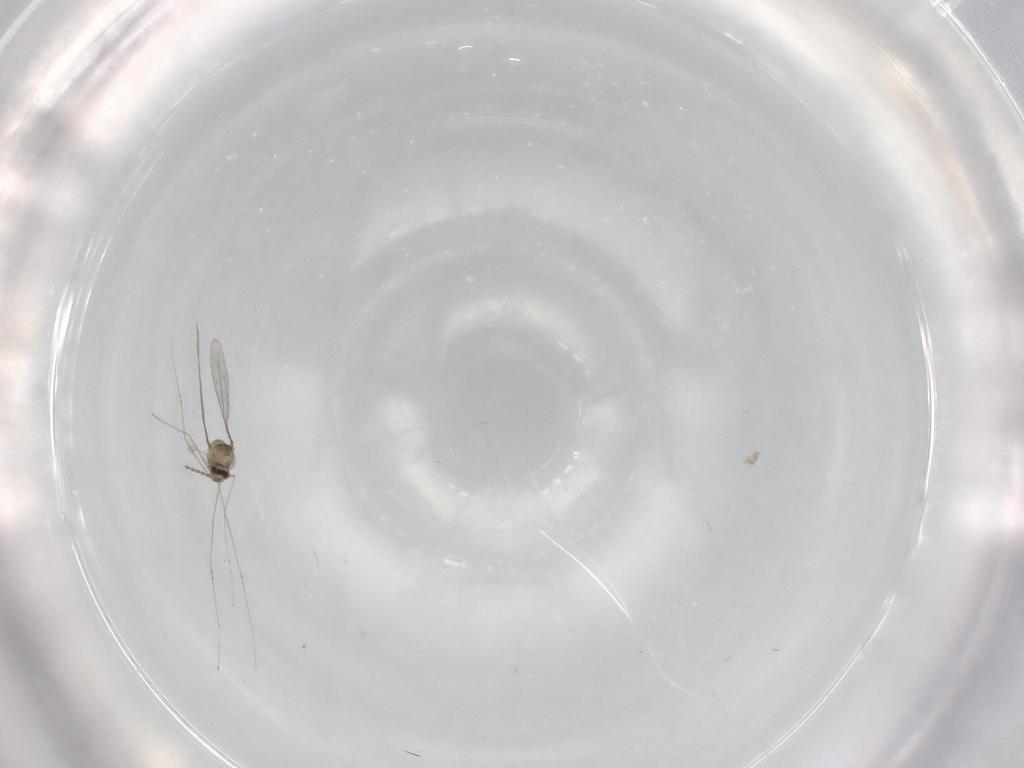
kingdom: Animalia
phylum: Arthropoda
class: Insecta
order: Diptera
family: Cecidomyiidae
